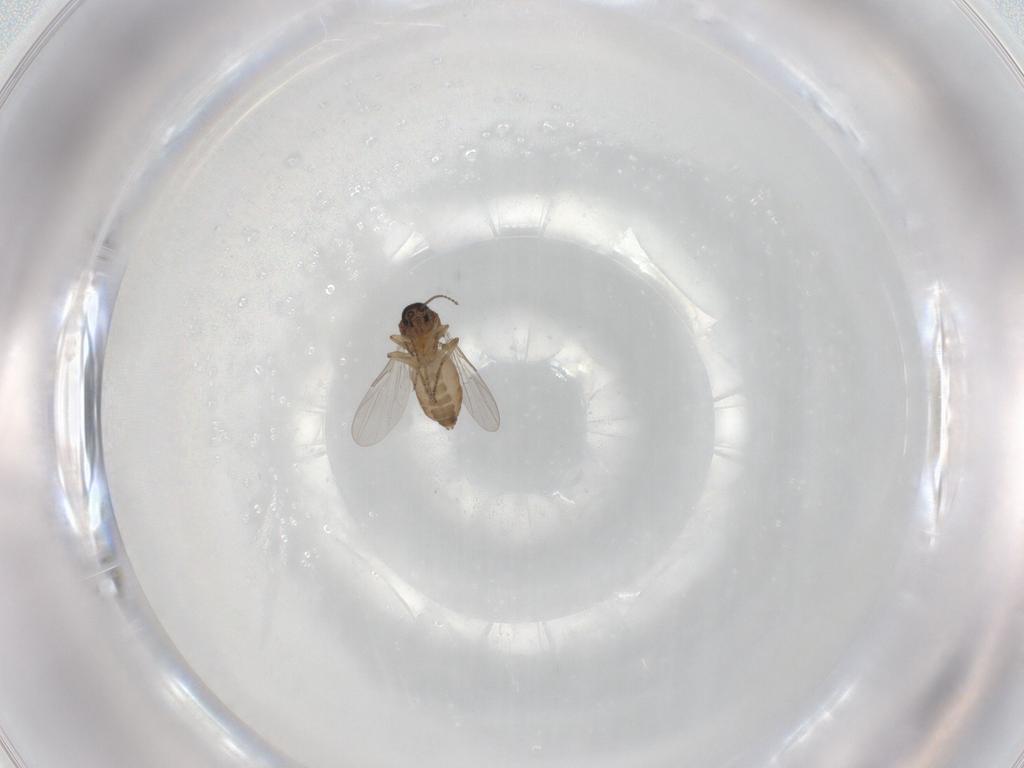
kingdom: Animalia
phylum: Arthropoda
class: Insecta
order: Diptera
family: Ceratopogonidae
